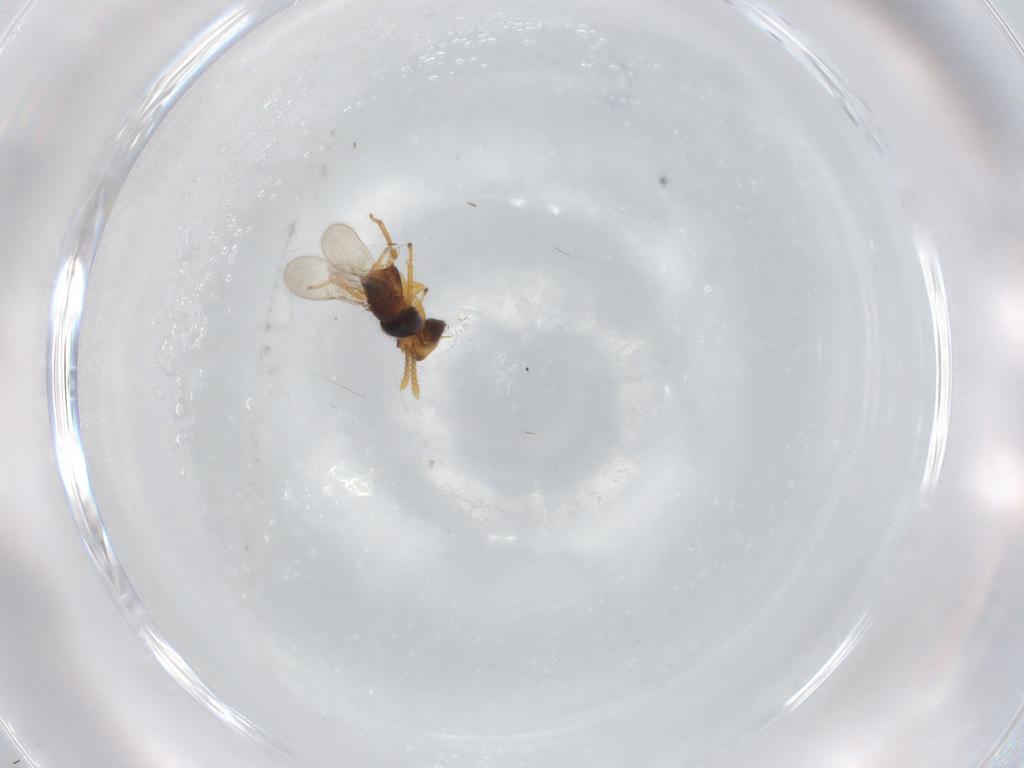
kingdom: Animalia
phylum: Arthropoda
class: Insecta
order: Hymenoptera
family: Encyrtidae
